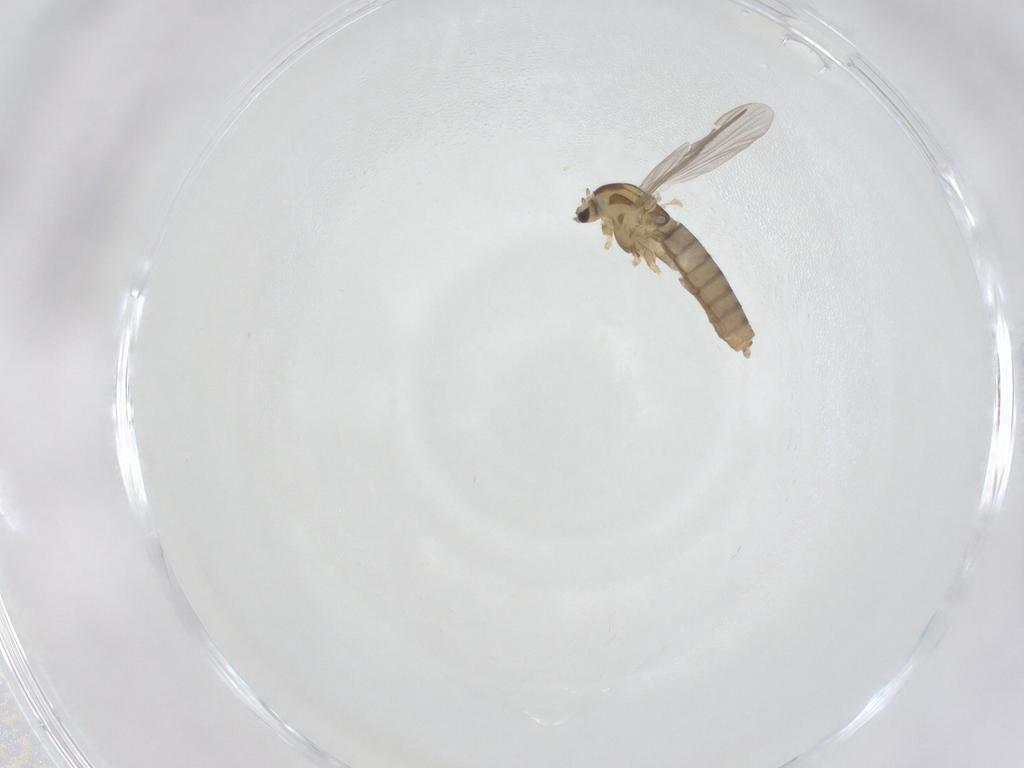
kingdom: Animalia
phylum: Arthropoda
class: Insecta
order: Diptera
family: Chironomidae
